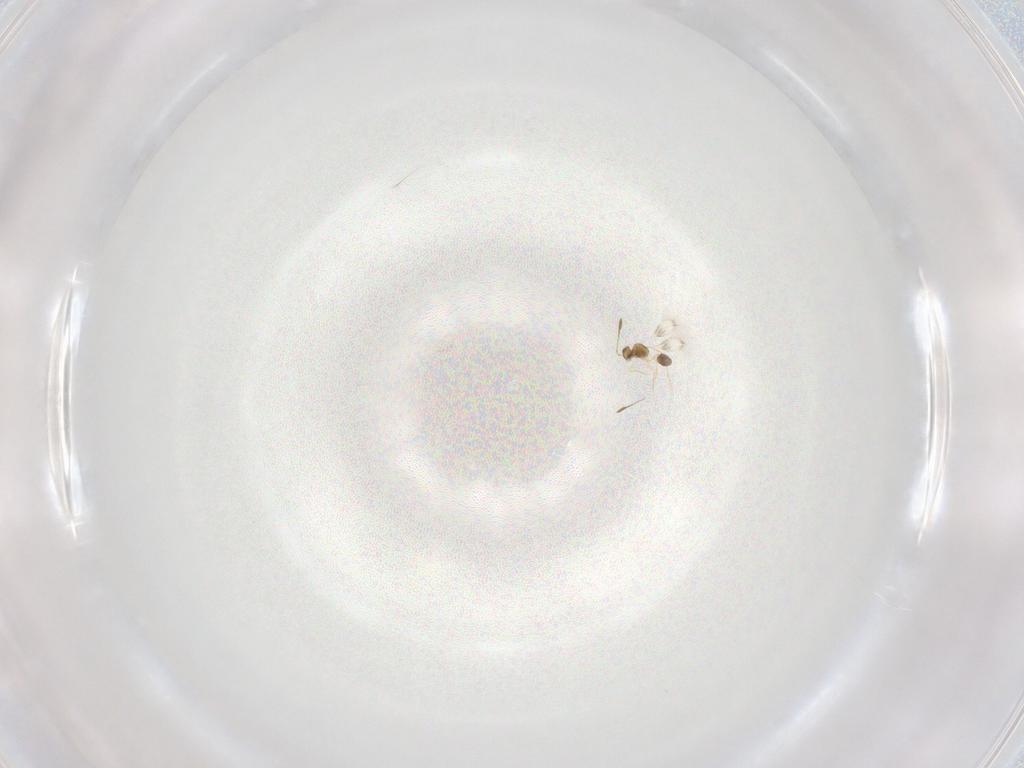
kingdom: Animalia
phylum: Arthropoda
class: Insecta
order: Hymenoptera
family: Mymarommatidae
